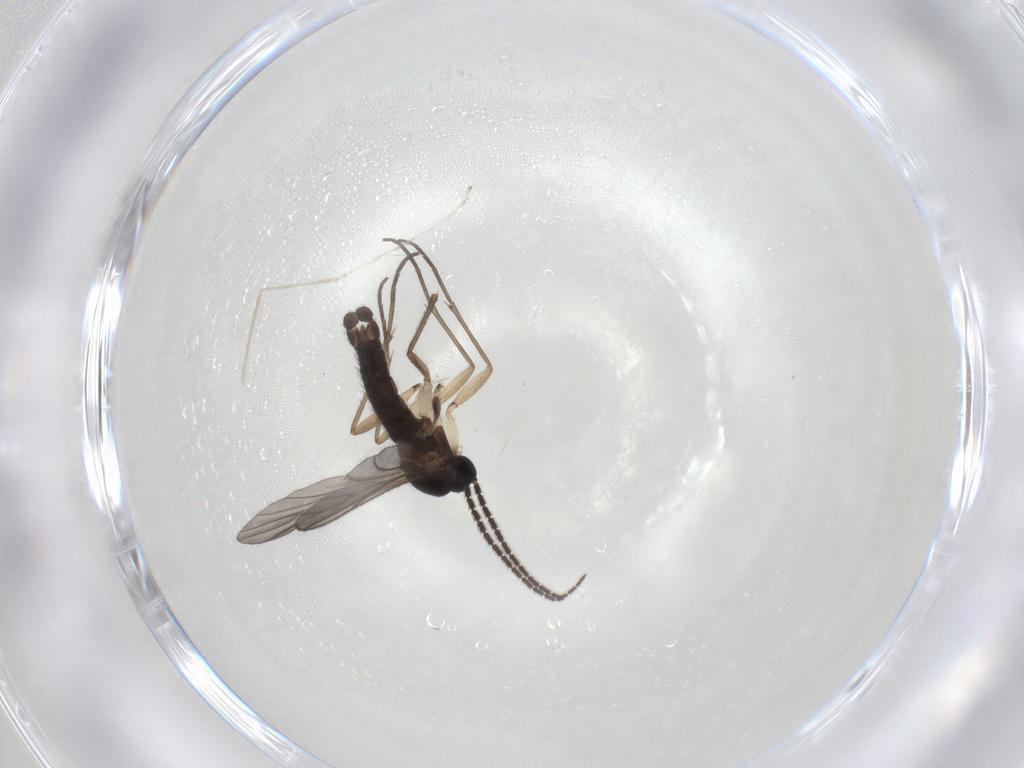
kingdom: Animalia
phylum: Arthropoda
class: Insecta
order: Diptera
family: Sciaridae
